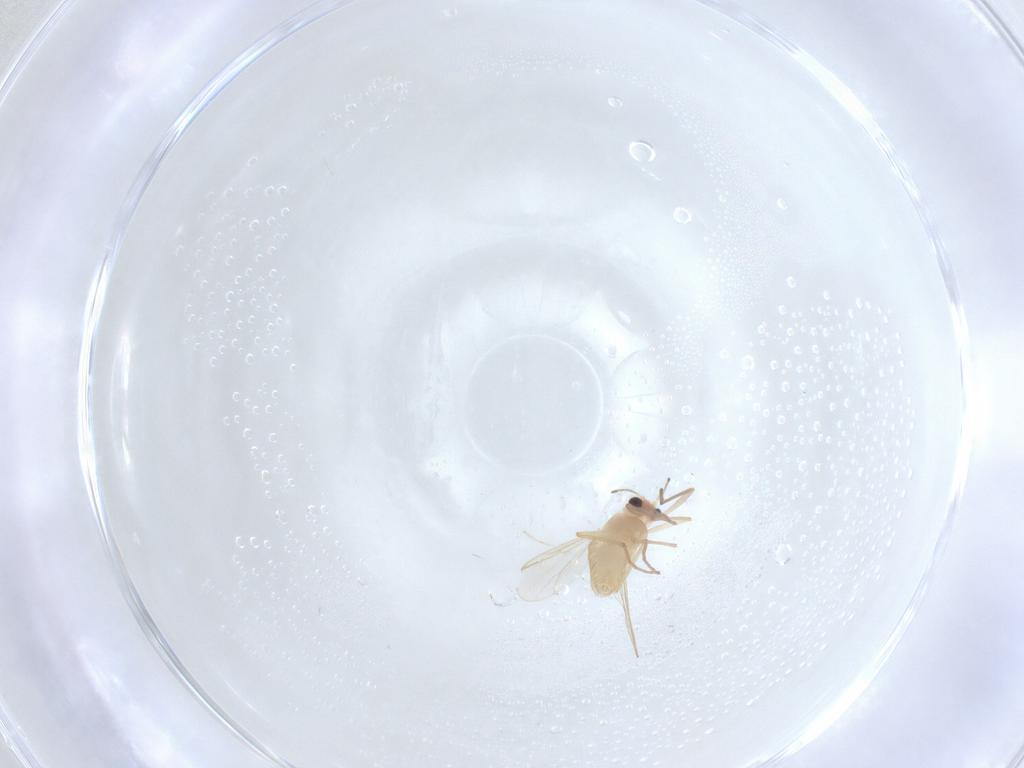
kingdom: Animalia
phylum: Arthropoda
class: Insecta
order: Diptera
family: Chironomidae
